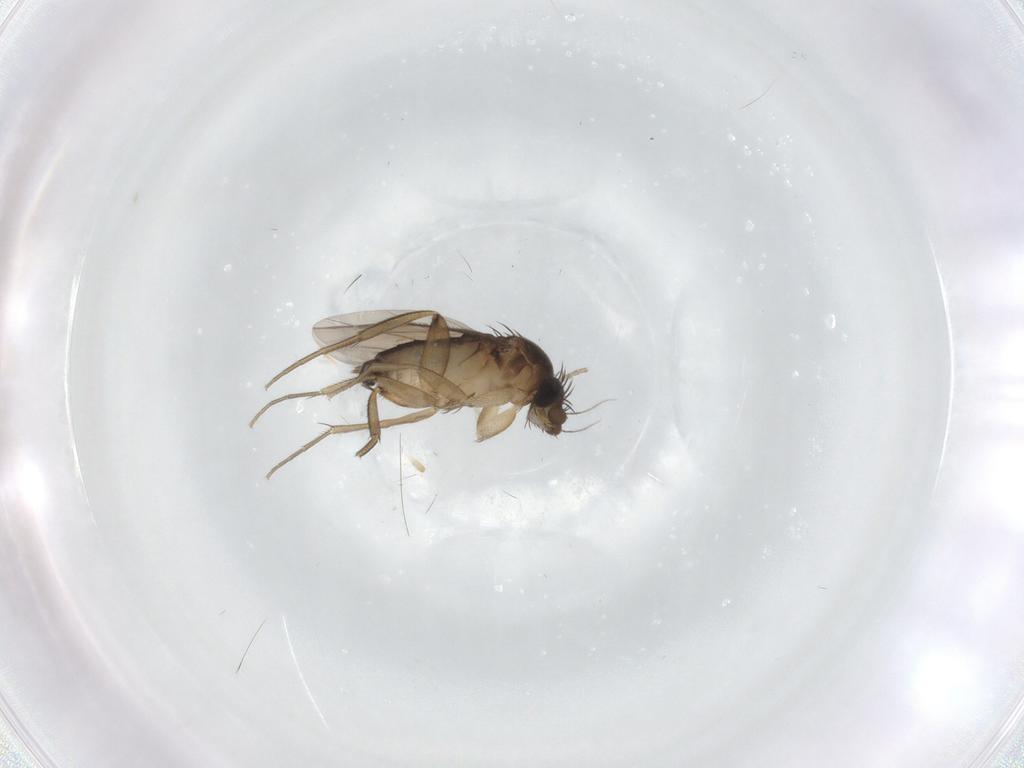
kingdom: Animalia
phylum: Arthropoda
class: Insecta
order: Diptera
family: Phoridae
